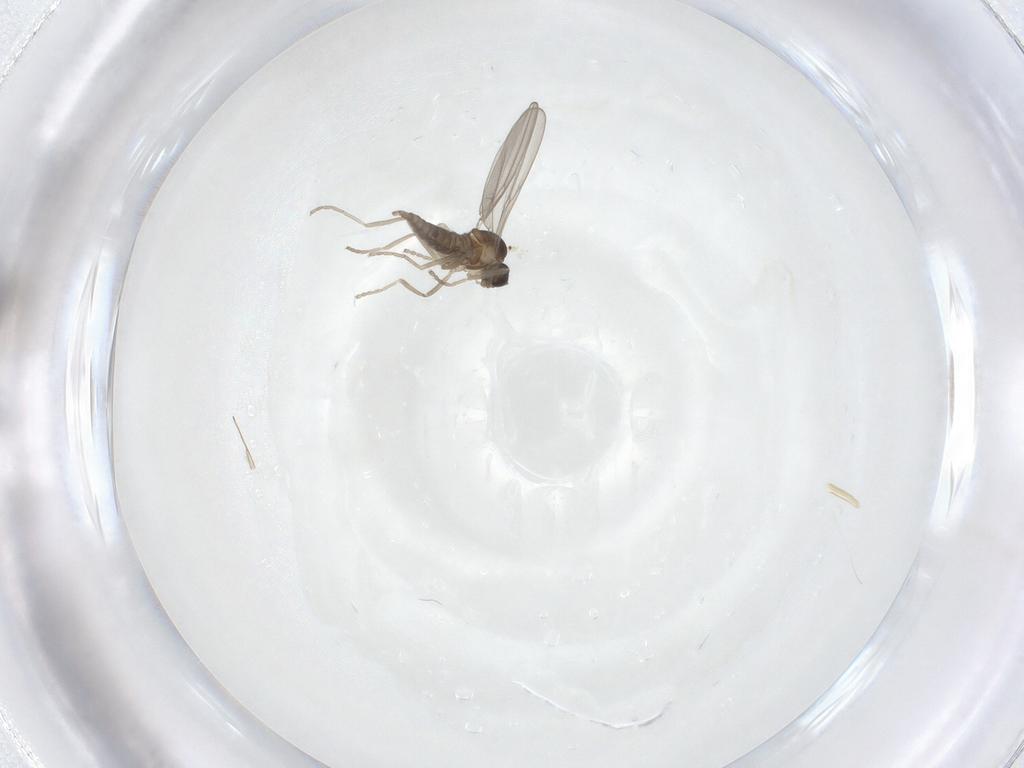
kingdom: Animalia
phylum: Arthropoda
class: Insecta
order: Diptera
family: Cecidomyiidae
